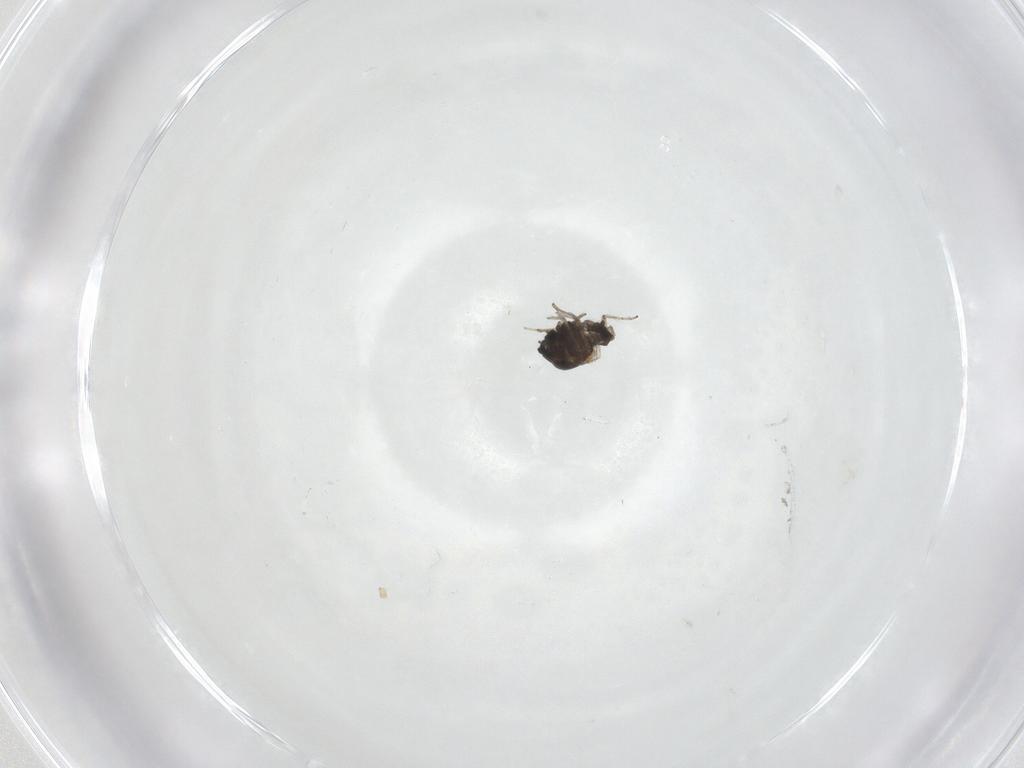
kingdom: Animalia
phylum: Arthropoda
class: Insecta
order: Diptera
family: Ceratopogonidae
